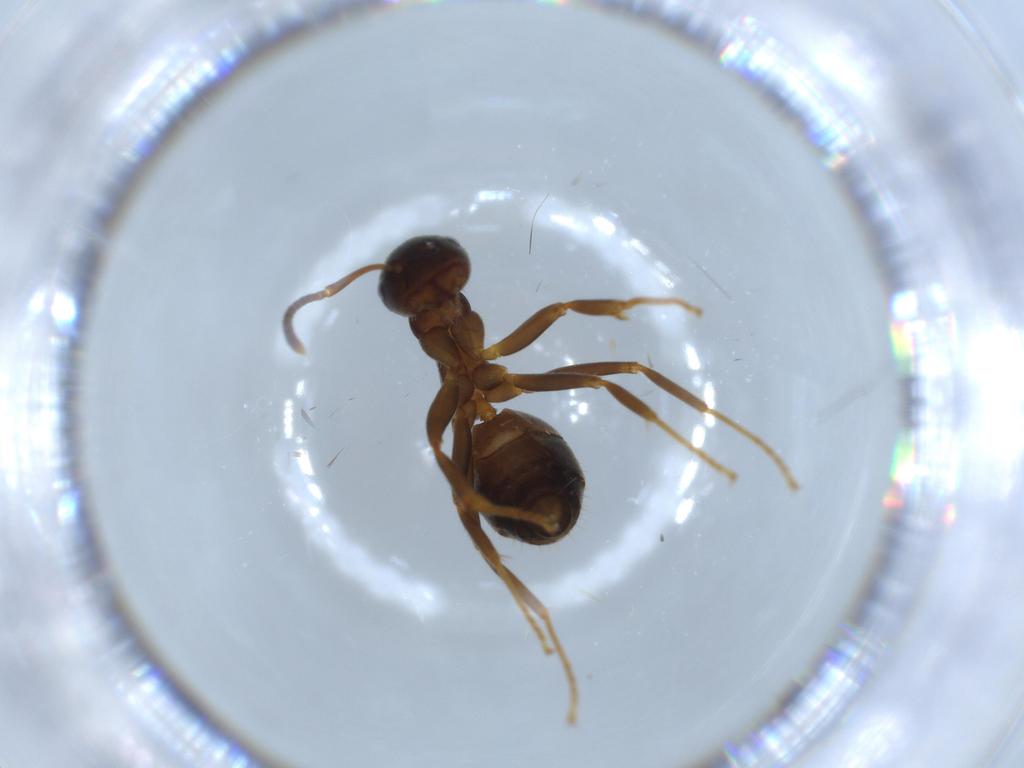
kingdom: Animalia
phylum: Arthropoda
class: Insecta
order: Hymenoptera
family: Formicidae
